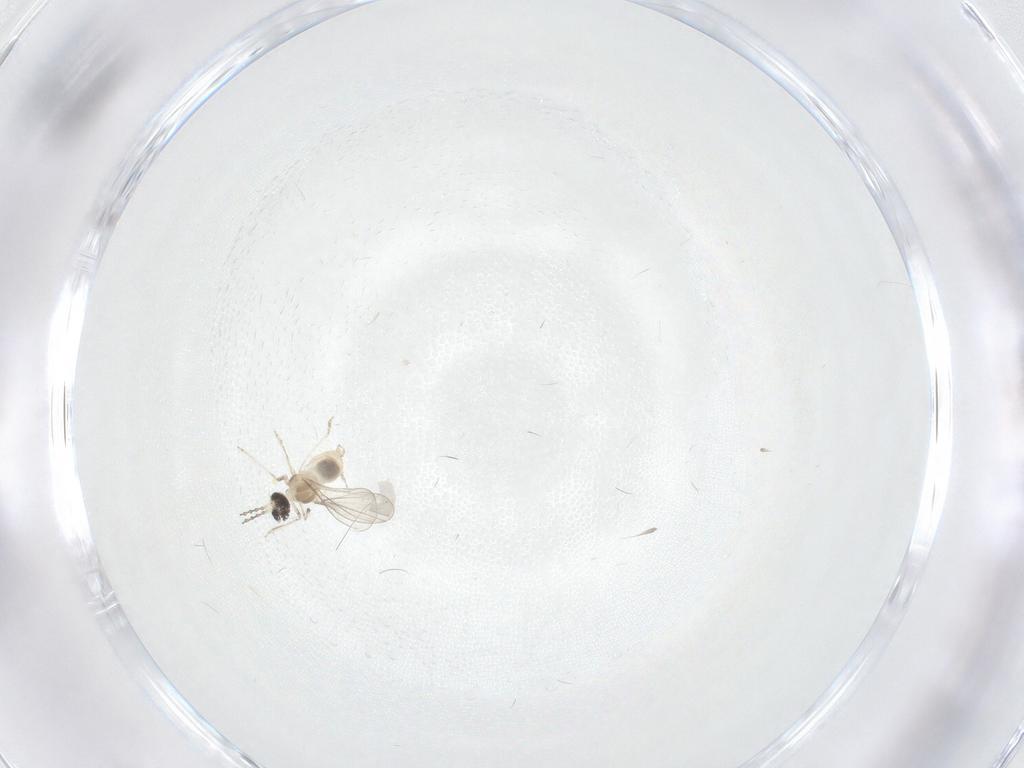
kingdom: Animalia
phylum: Arthropoda
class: Insecta
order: Diptera
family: Cecidomyiidae
